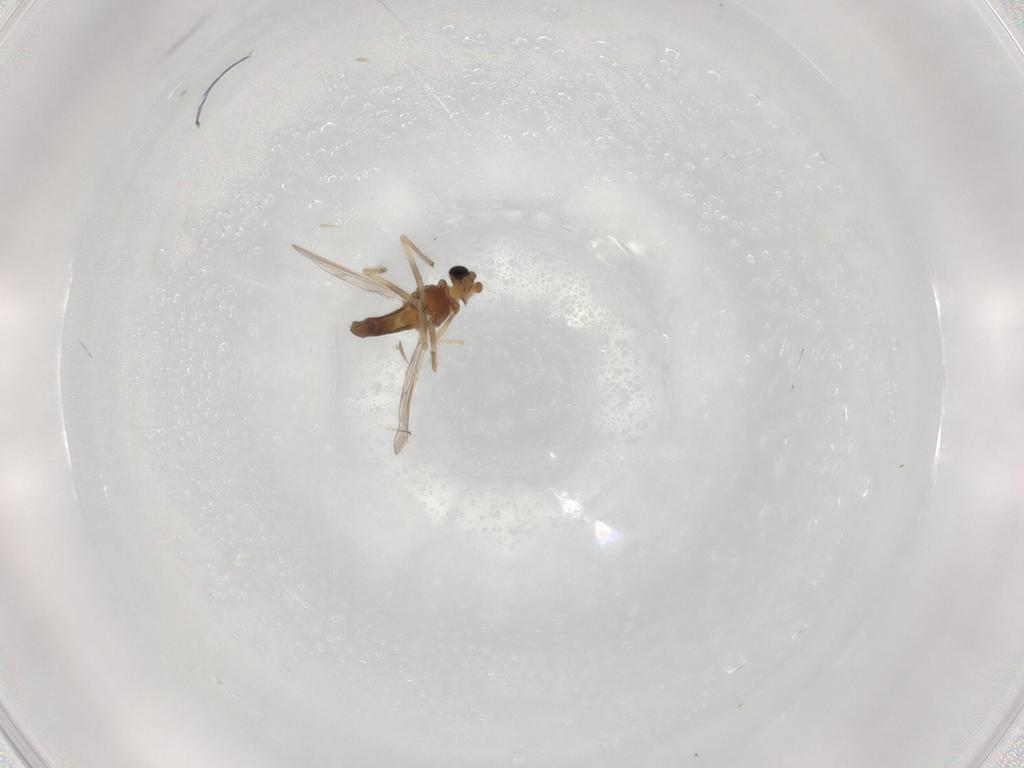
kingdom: Animalia
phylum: Arthropoda
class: Insecta
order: Diptera
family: Chironomidae
